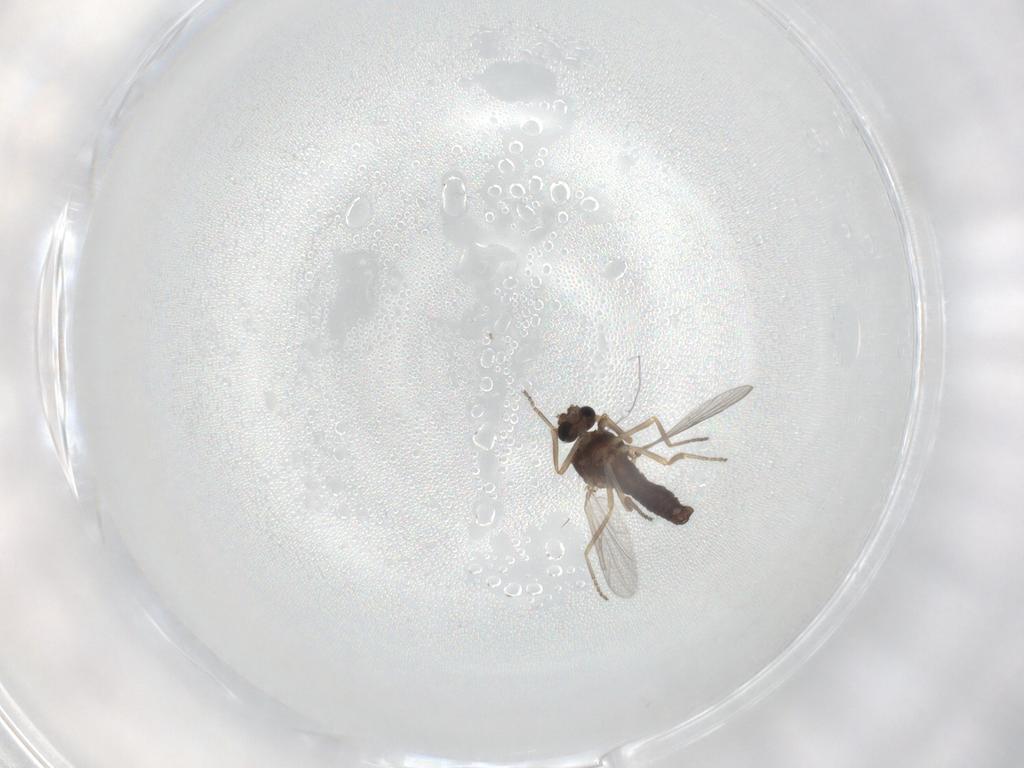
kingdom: Animalia
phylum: Arthropoda
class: Insecta
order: Diptera
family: Ceratopogonidae
